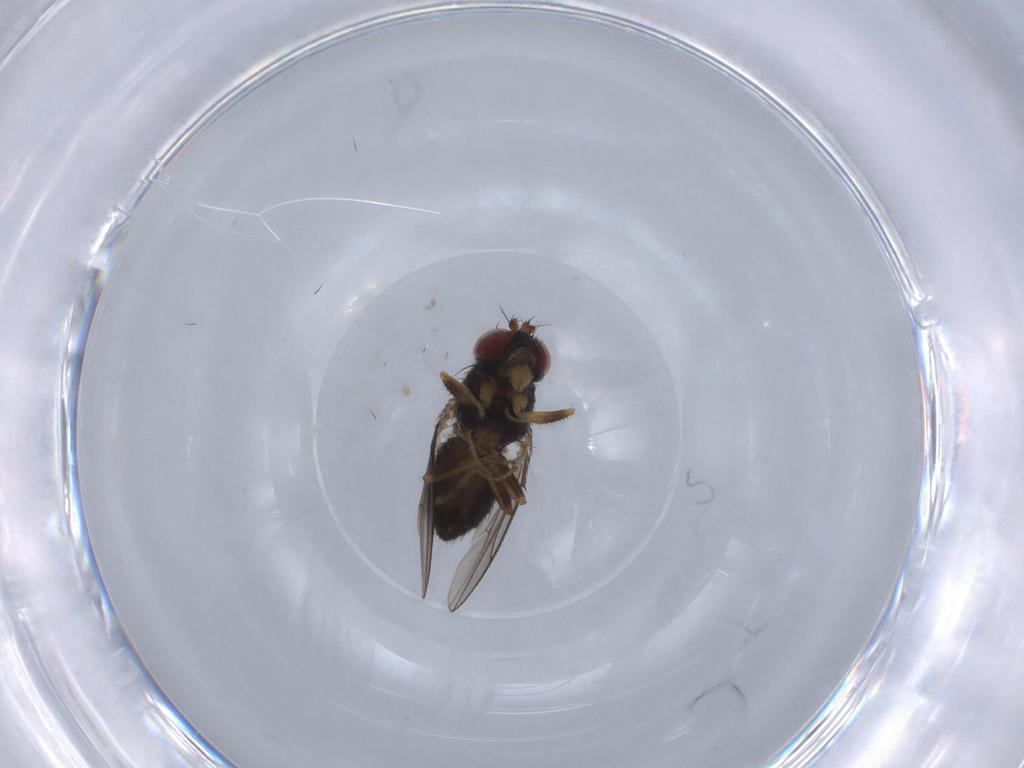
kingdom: Animalia
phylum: Arthropoda
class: Insecta
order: Diptera
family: Ephydridae
